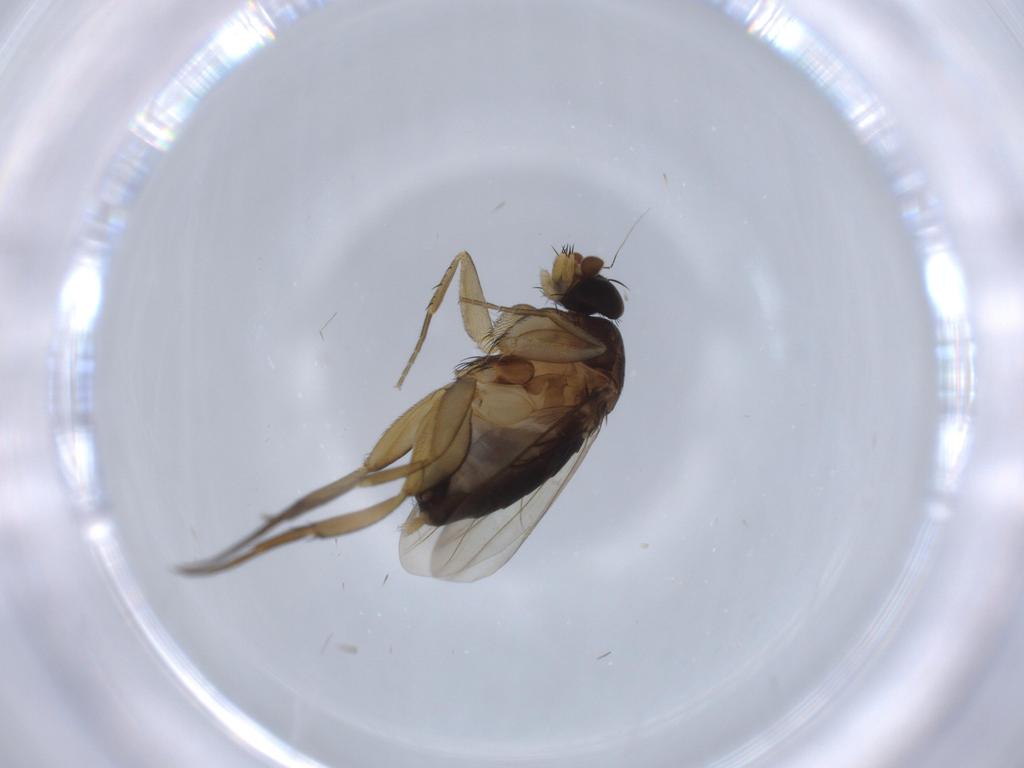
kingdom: Animalia
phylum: Arthropoda
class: Insecta
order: Diptera
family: Phoridae
